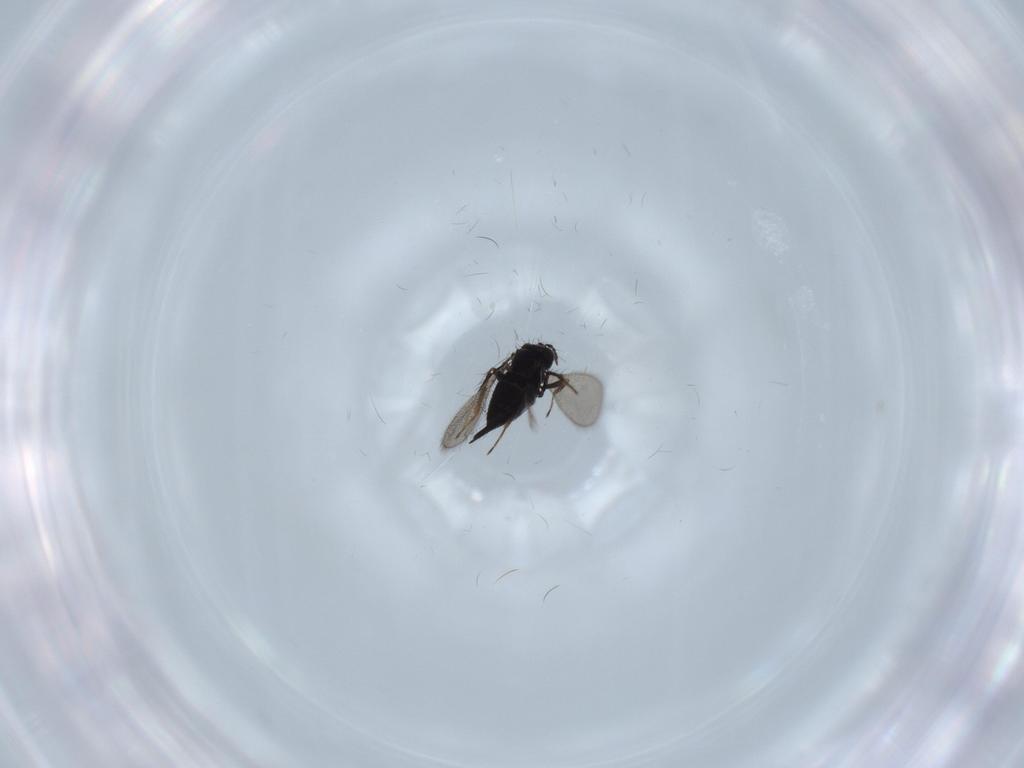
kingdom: Animalia
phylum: Arthropoda
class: Insecta
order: Hymenoptera
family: Trichogrammatidae
